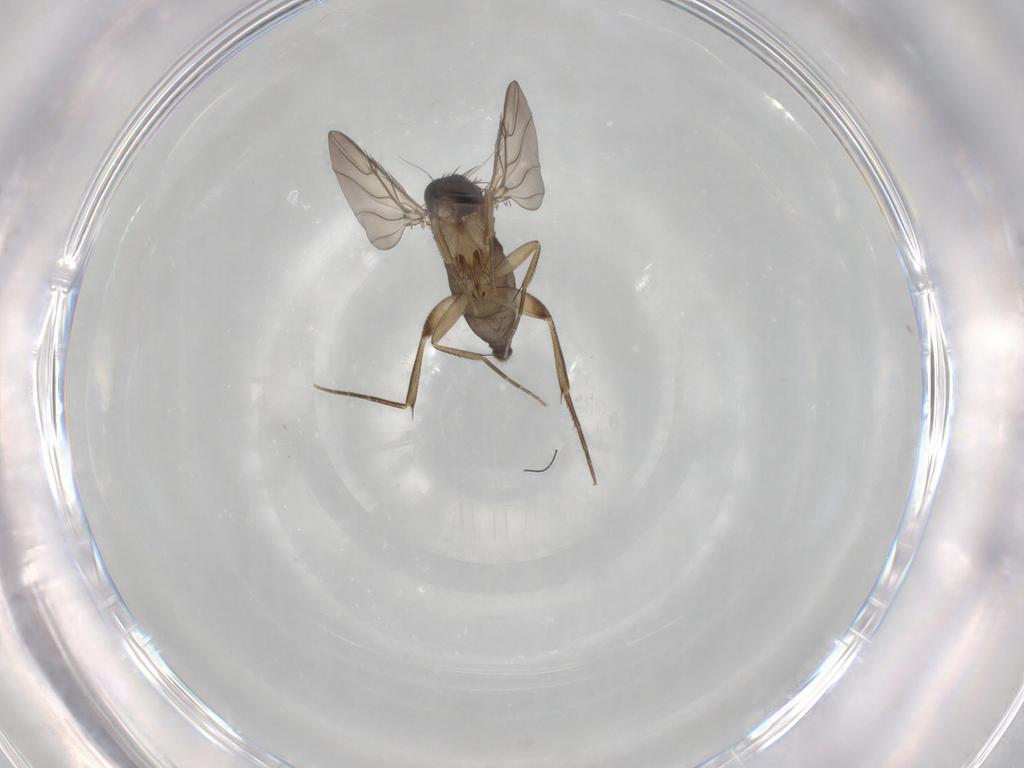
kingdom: Animalia
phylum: Arthropoda
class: Insecta
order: Diptera
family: Phoridae
